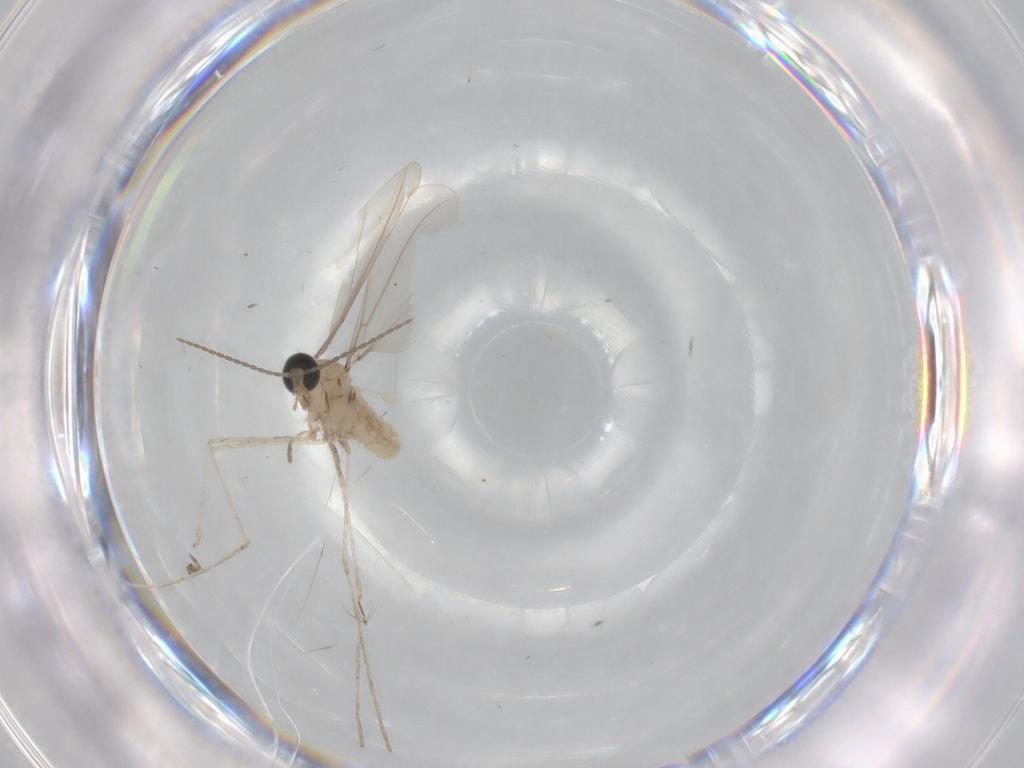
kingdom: Animalia
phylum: Arthropoda
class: Insecta
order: Diptera
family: Cecidomyiidae
